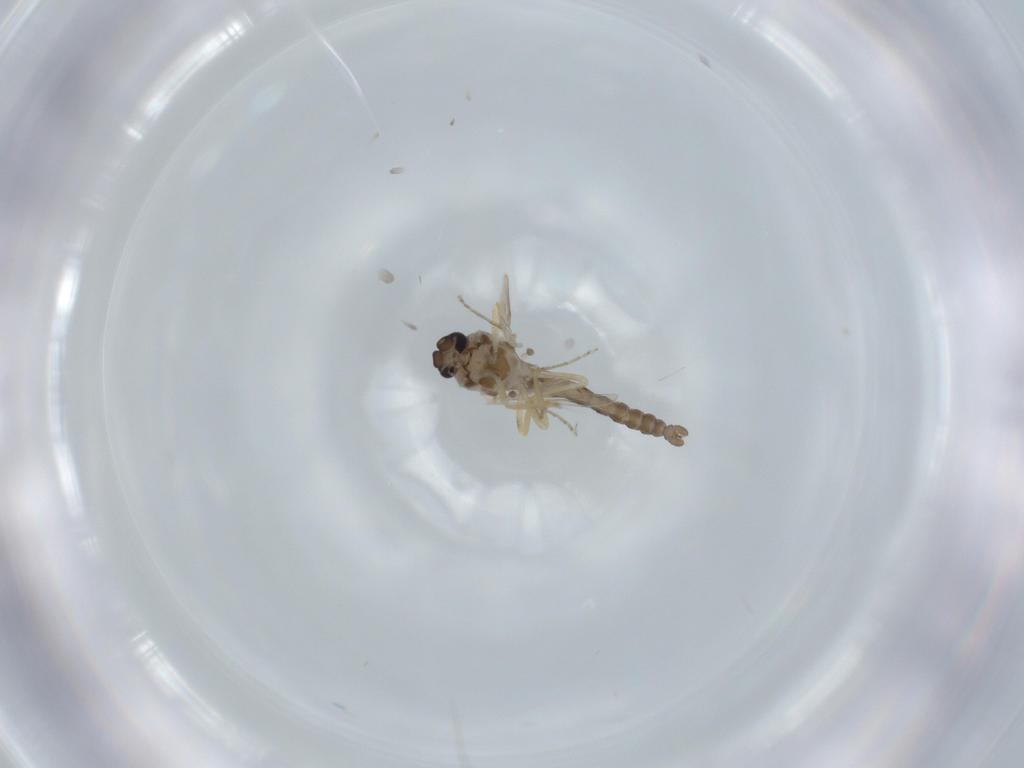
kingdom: Animalia
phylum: Arthropoda
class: Insecta
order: Diptera
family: Ceratopogonidae
